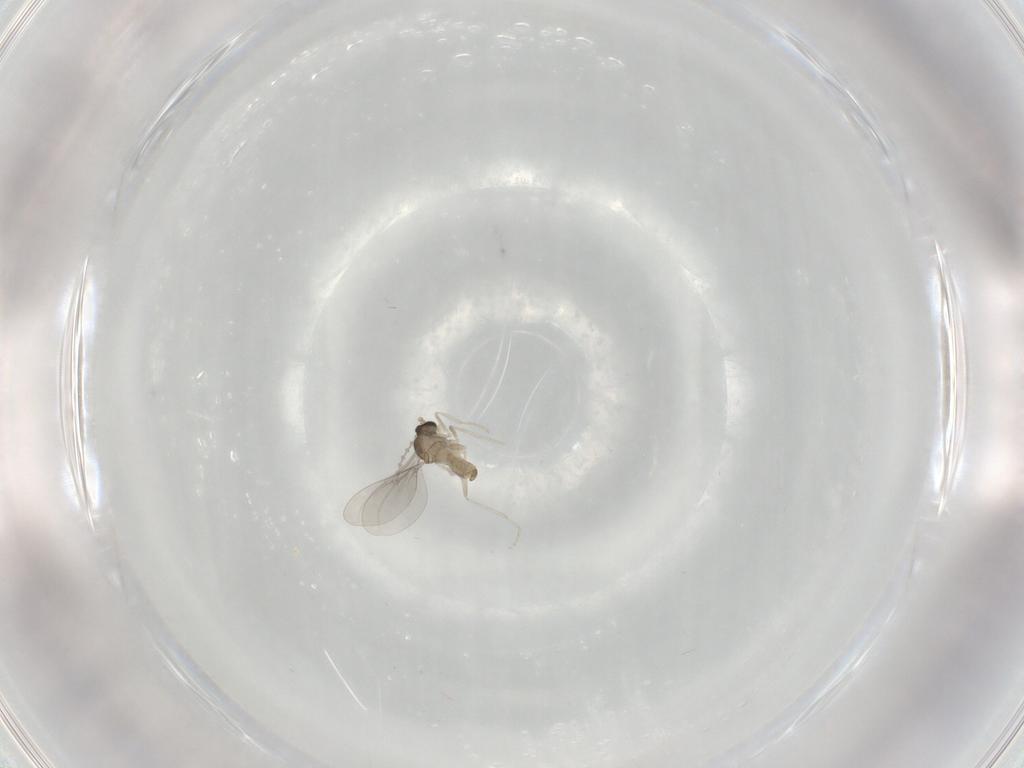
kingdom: Animalia
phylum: Arthropoda
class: Insecta
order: Diptera
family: Cecidomyiidae
